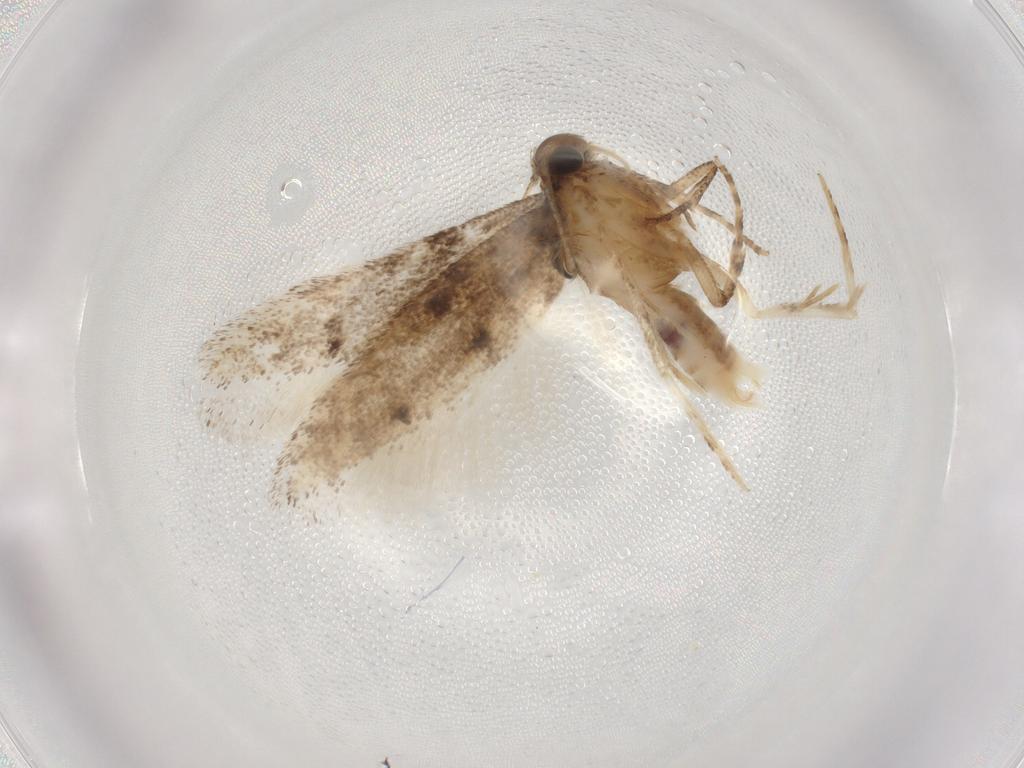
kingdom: Animalia
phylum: Arthropoda
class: Insecta
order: Lepidoptera
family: Gelechiidae
